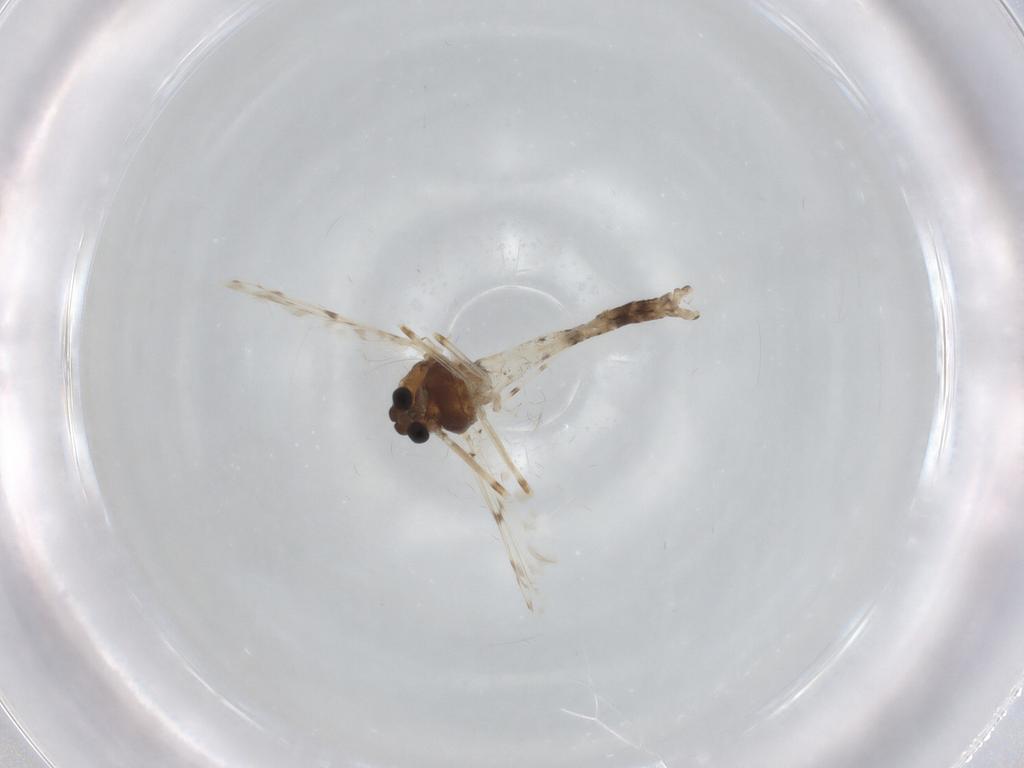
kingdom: Animalia
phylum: Arthropoda
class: Insecta
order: Diptera
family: Chironomidae
